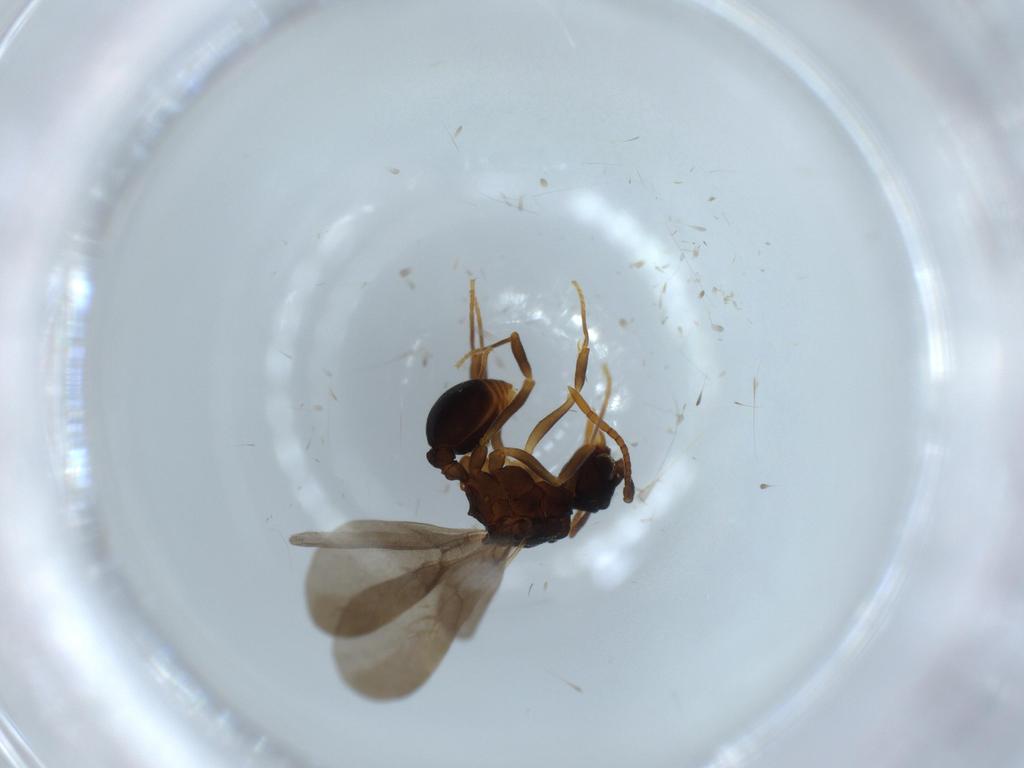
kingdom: Animalia
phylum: Arthropoda
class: Insecta
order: Hymenoptera
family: Formicidae
